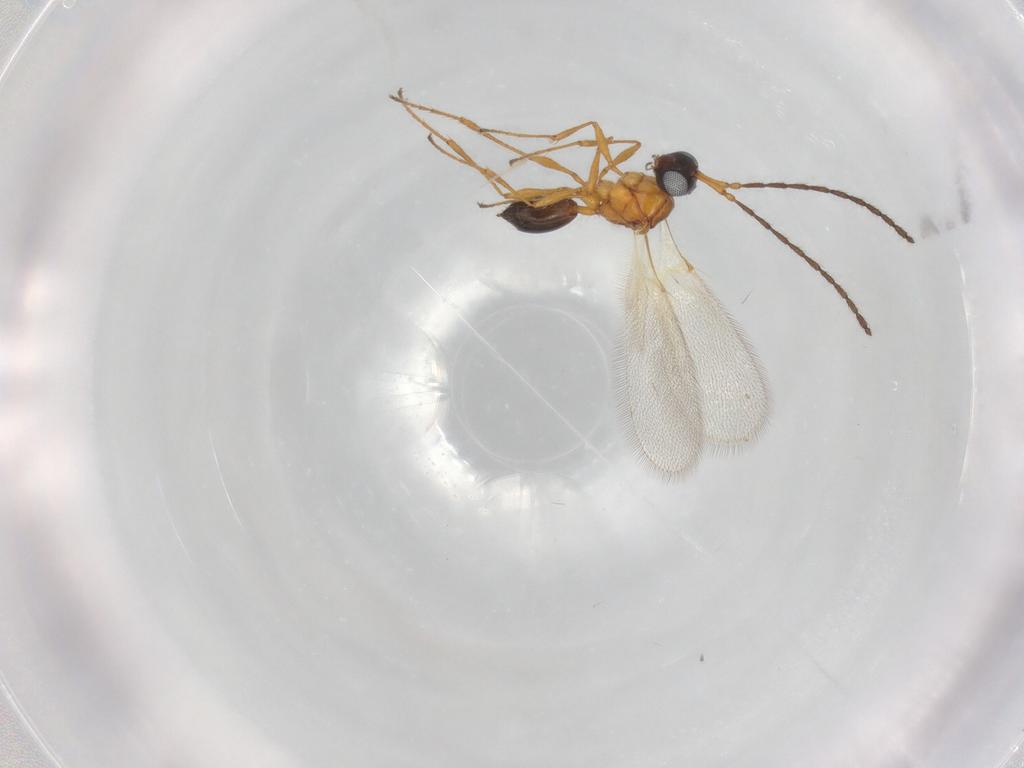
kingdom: Animalia
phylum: Arthropoda
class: Insecta
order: Hymenoptera
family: Diapriidae
